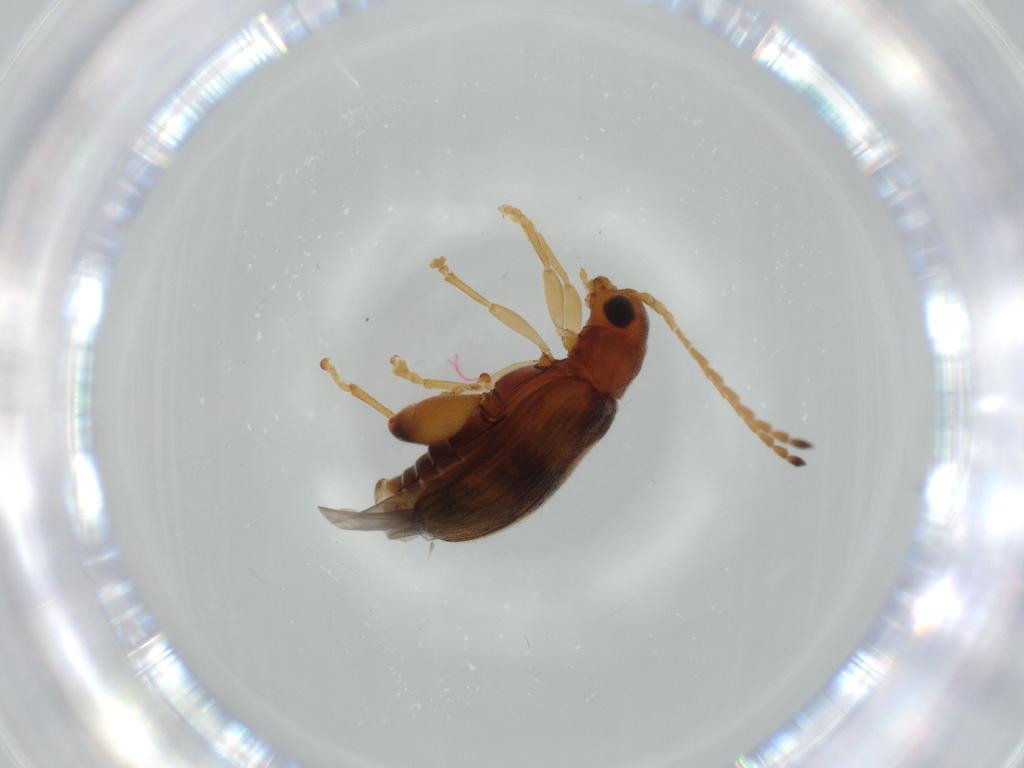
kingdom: Animalia
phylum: Arthropoda
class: Insecta
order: Coleoptera
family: Chrysomelidae
